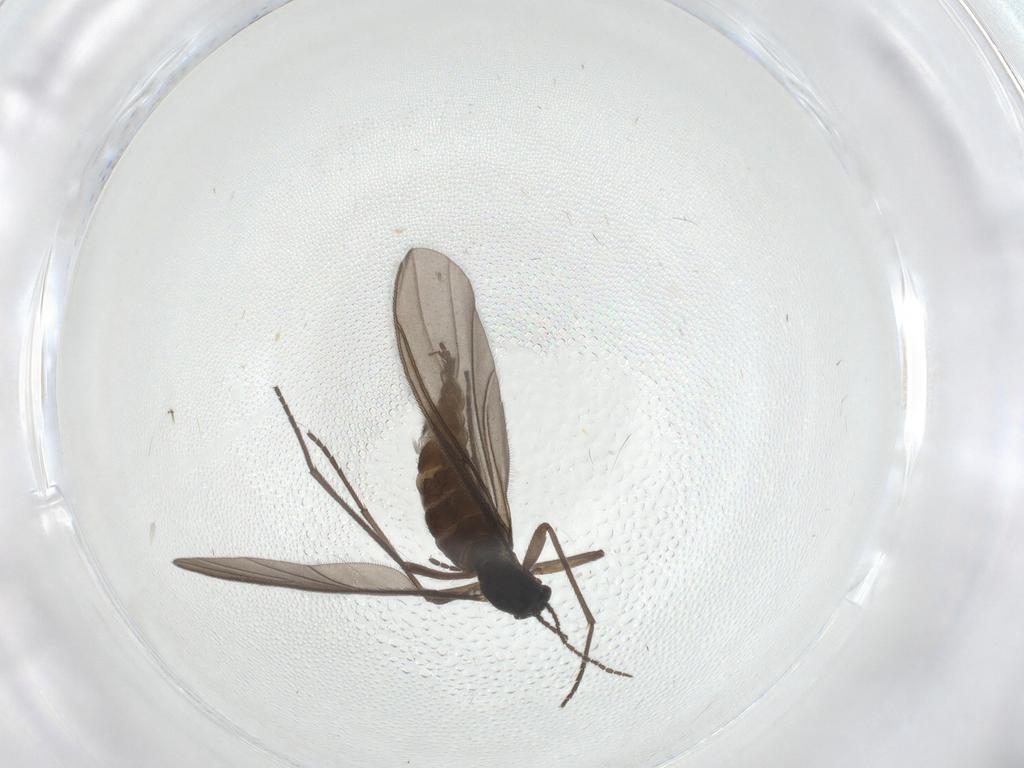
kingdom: Animalia
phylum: Arthropoda
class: Insecta
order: Diptera
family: Sciaridae
